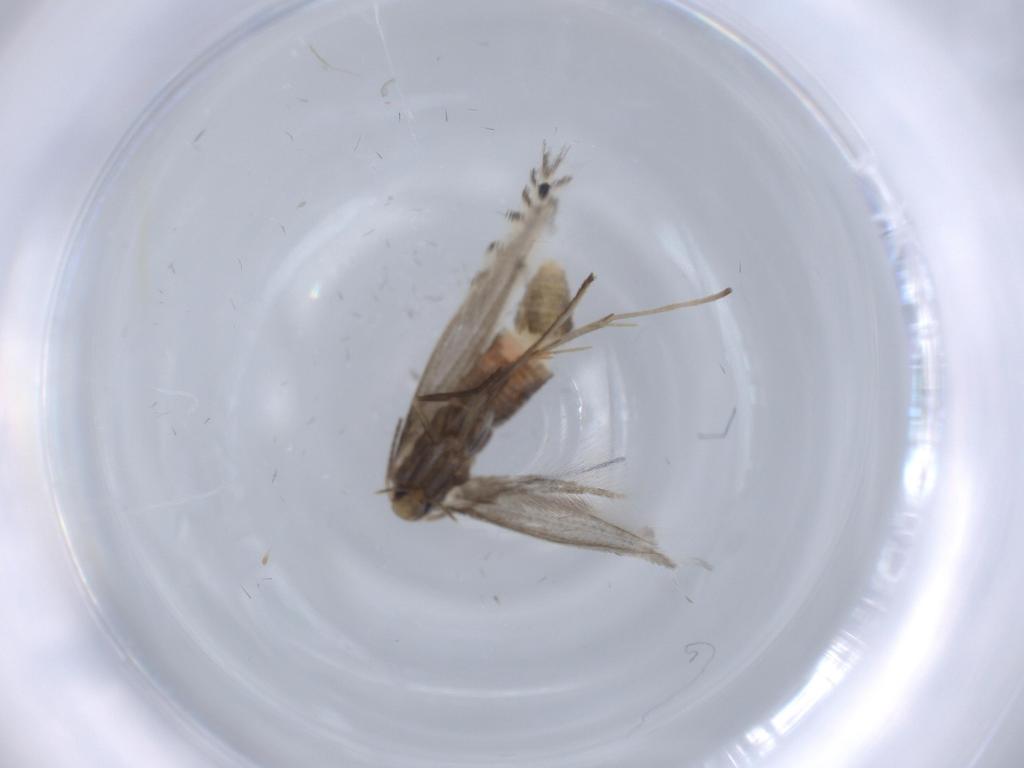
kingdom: Animalia
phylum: Arthropoda
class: Insecta
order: Lepidoptera
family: Gracillariidae
